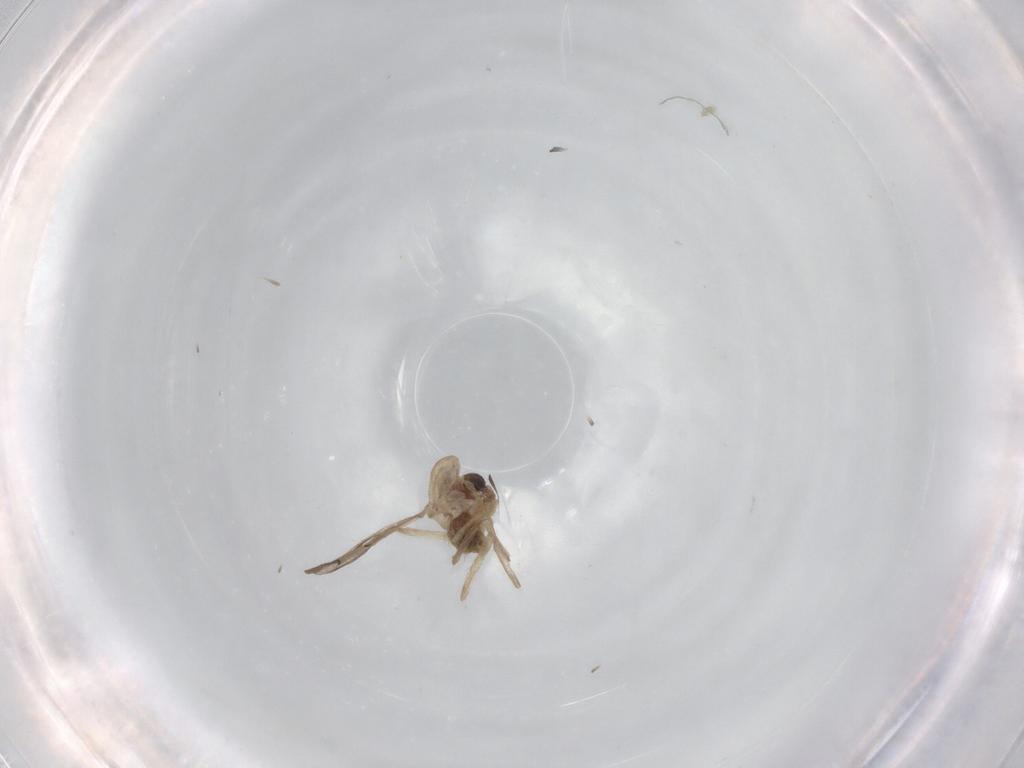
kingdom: Animalia
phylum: Arthropoda
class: Insecta
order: Diptera
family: Chironomidae
